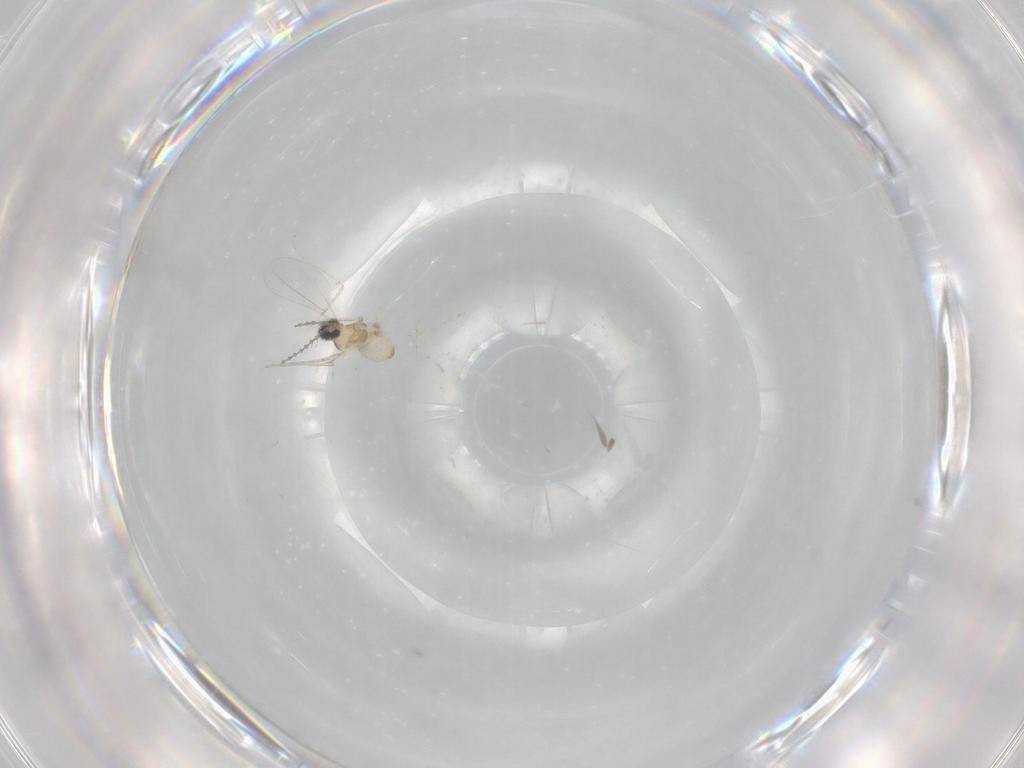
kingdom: Animalia
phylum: Arthropoda
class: Insecta
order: Diptera
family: Cecidomyiidae
